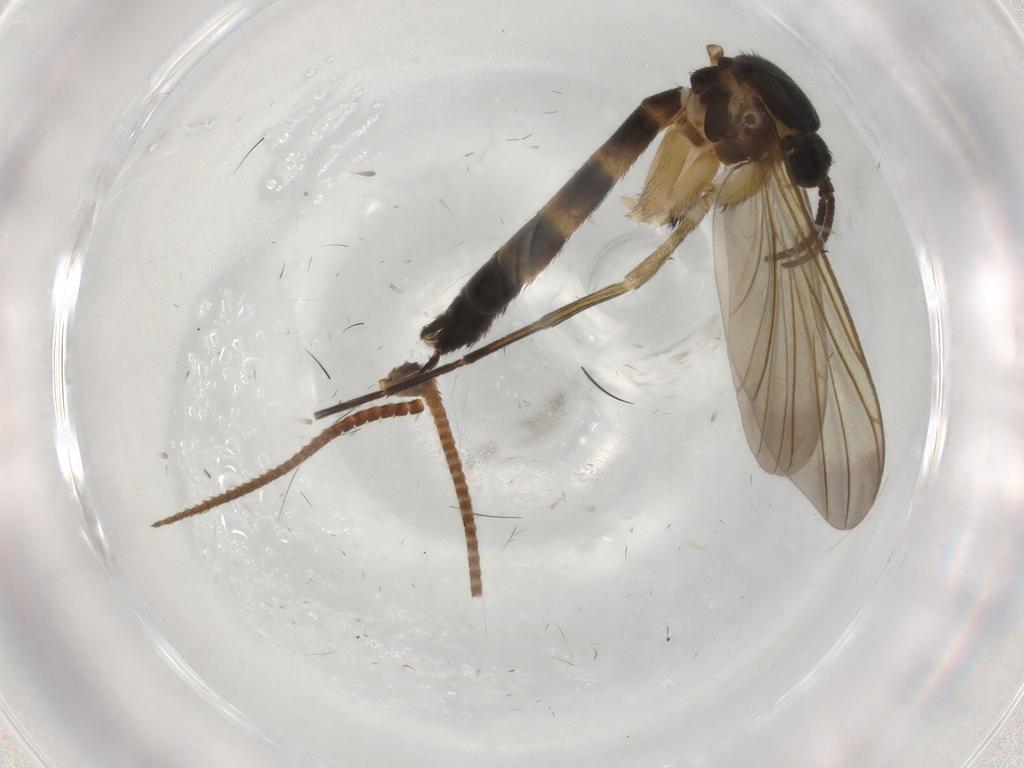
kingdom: Animalia
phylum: Arthropoda
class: Insecta
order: Diptera
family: Keroplatidae
